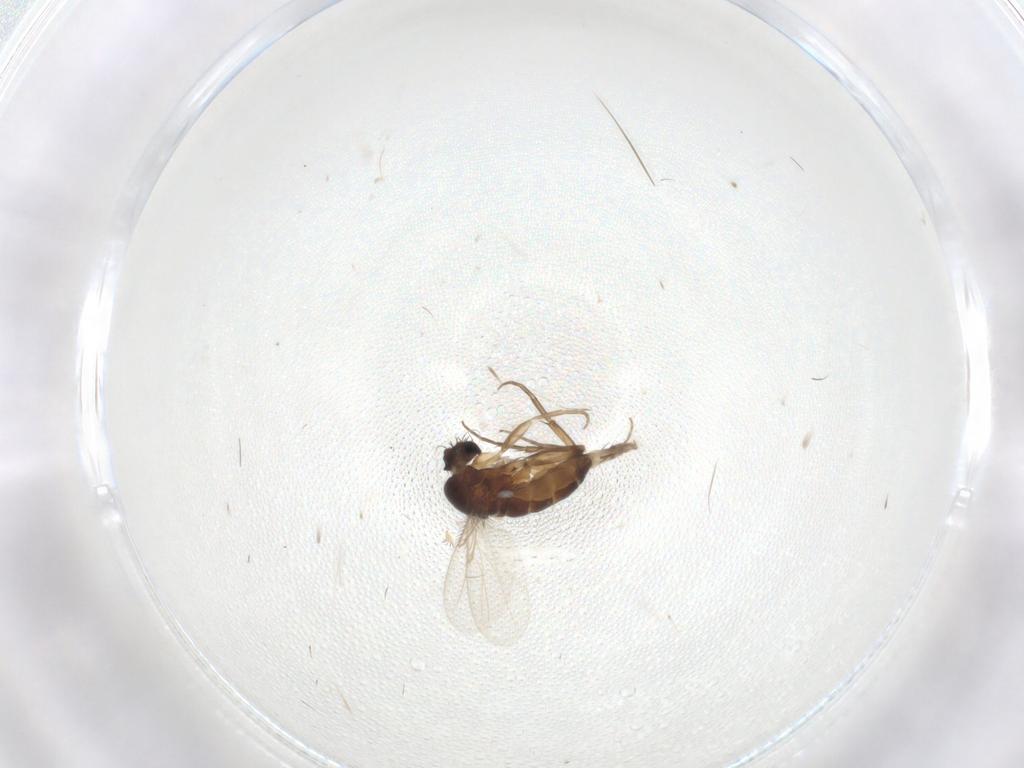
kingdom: Animalia
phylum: Arthropoda
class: Insecta
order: Diptera
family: Phoridae
